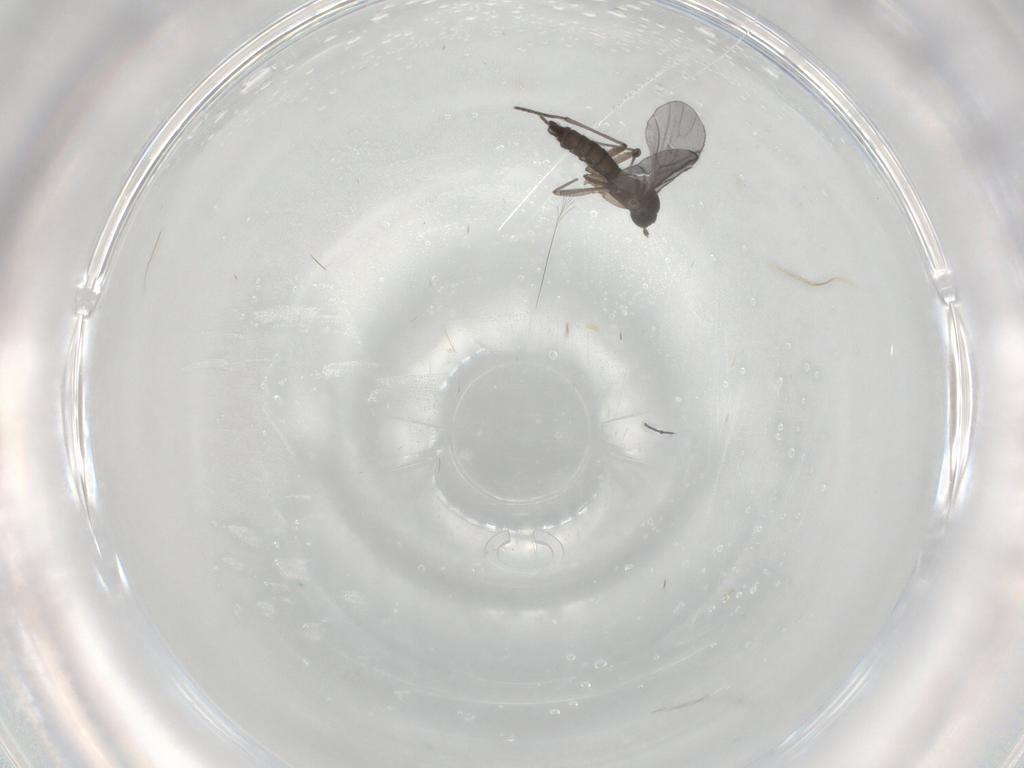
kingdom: Animalia
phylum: Arthropoda
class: Insecta
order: Diptera
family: Sciaridae
